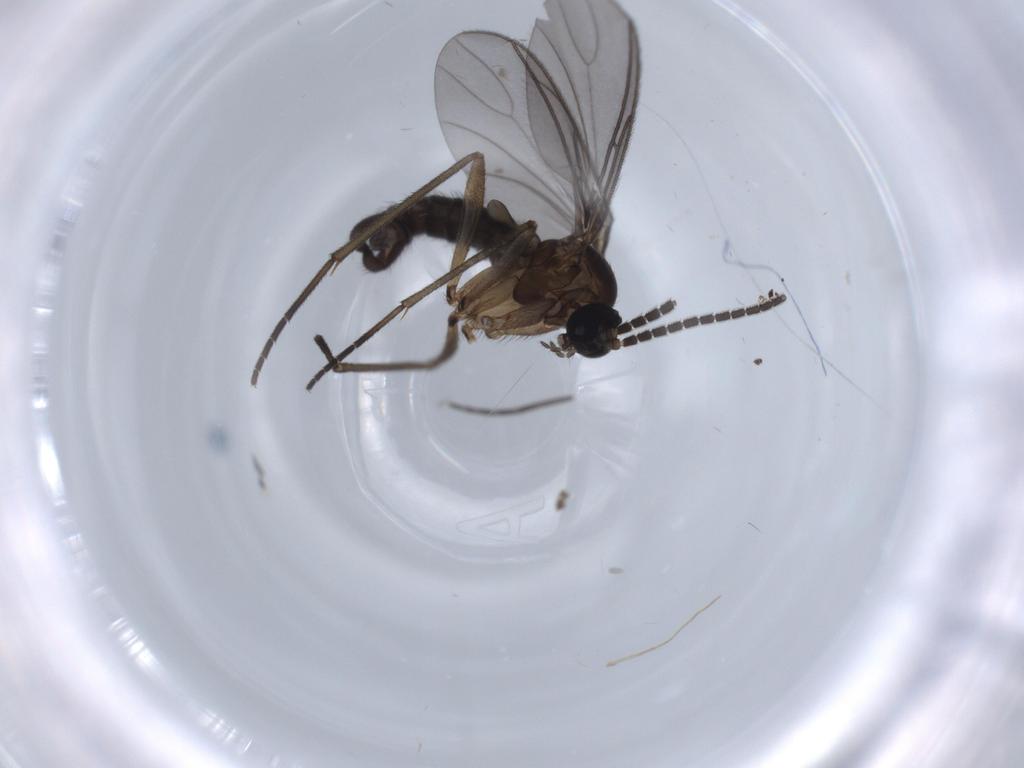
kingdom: Animalia
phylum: Arthropoda
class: Insecta
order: Diptera
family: Sciaridae
